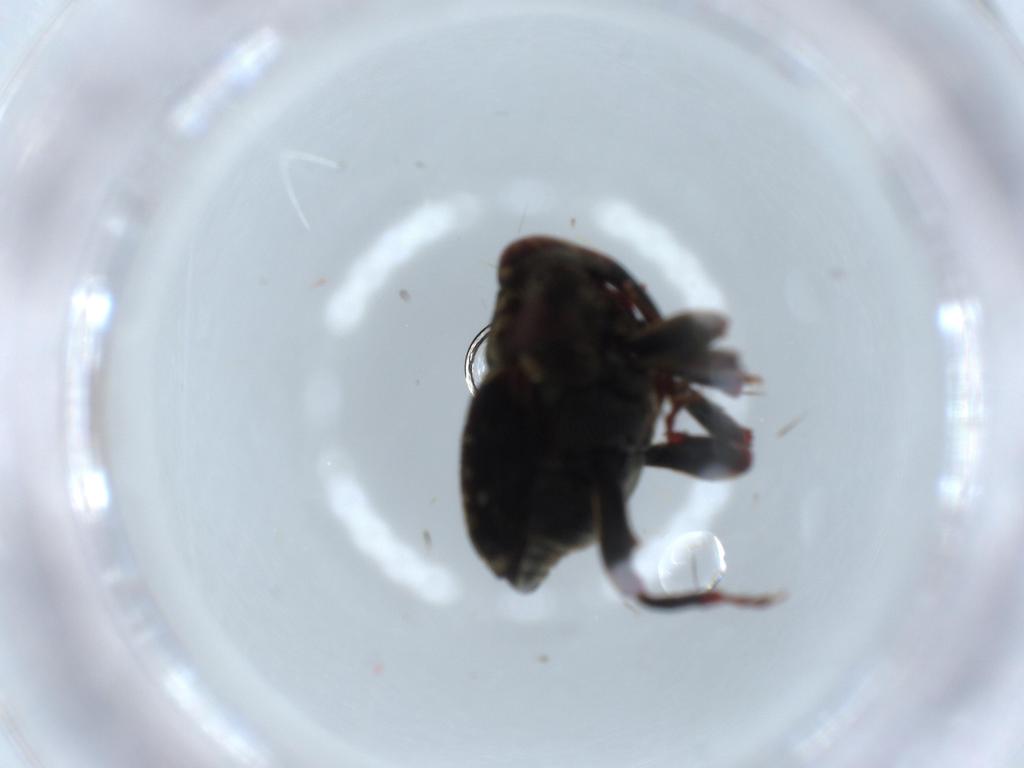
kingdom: Animalia
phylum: Arthropoda
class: Insecta
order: Coleoptera
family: Curculionidae
